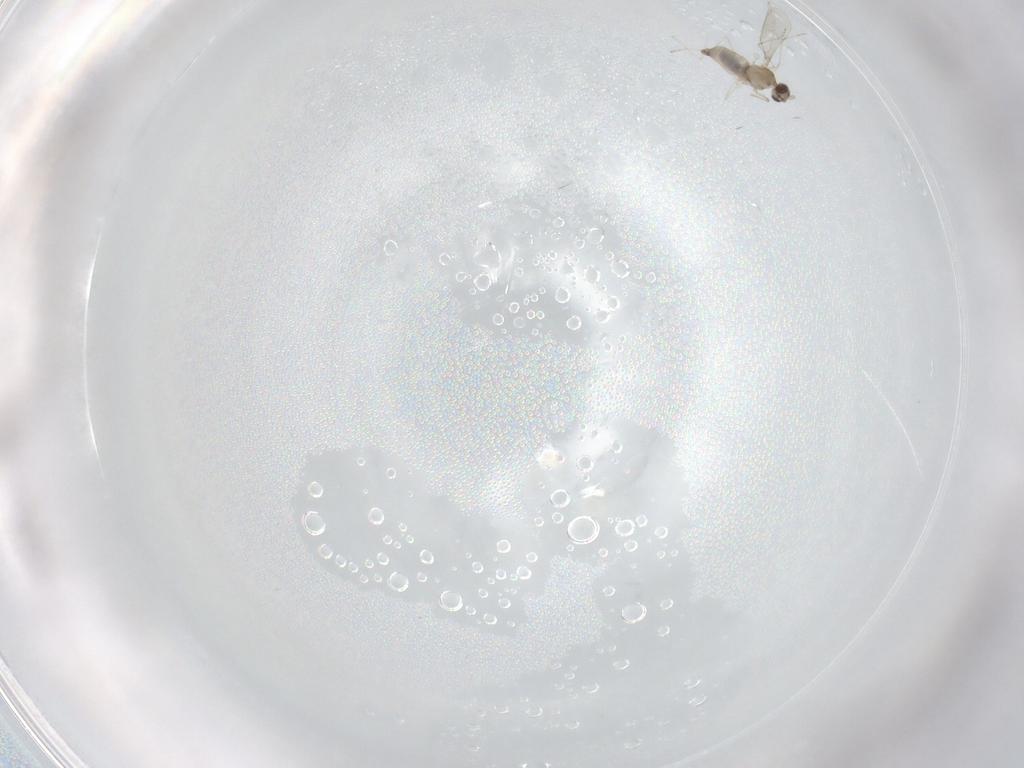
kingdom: Animalia
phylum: Arthropoda
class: Insecta
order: Diptera
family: Cecidomyiidae
